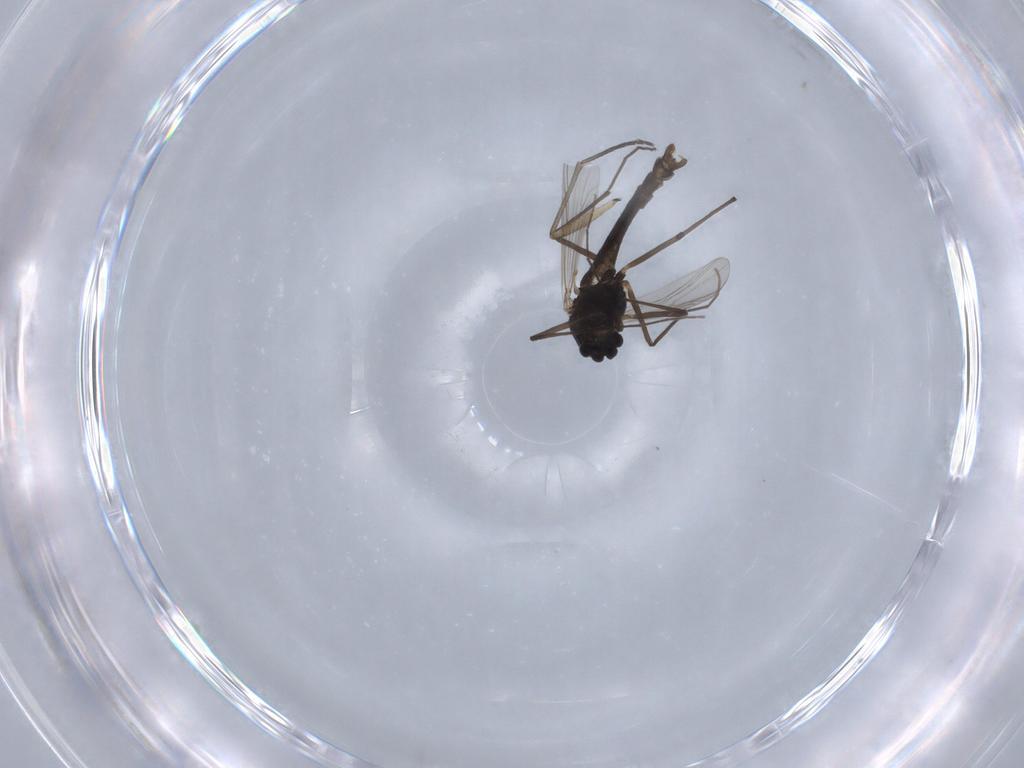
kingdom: Animalia
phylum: Arthropoda
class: Insecta
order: Diptera
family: Chironomidae
